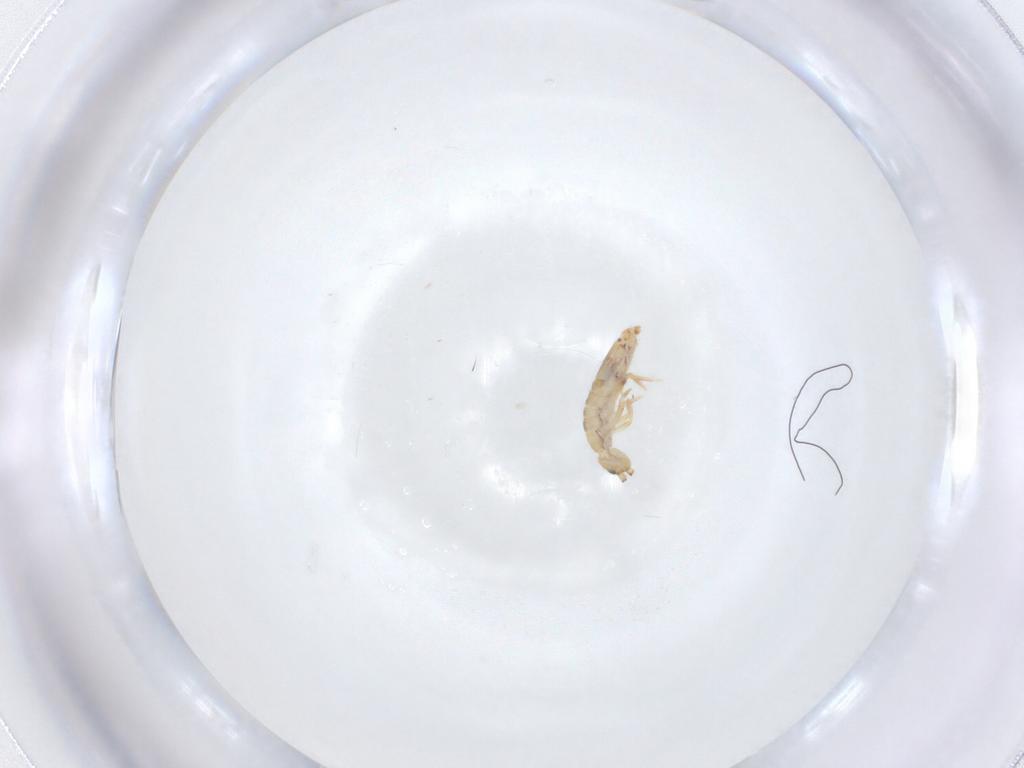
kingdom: Animalia
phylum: Arthropoda
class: Collembola
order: Entomobryomorpha
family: Entomobryidae
